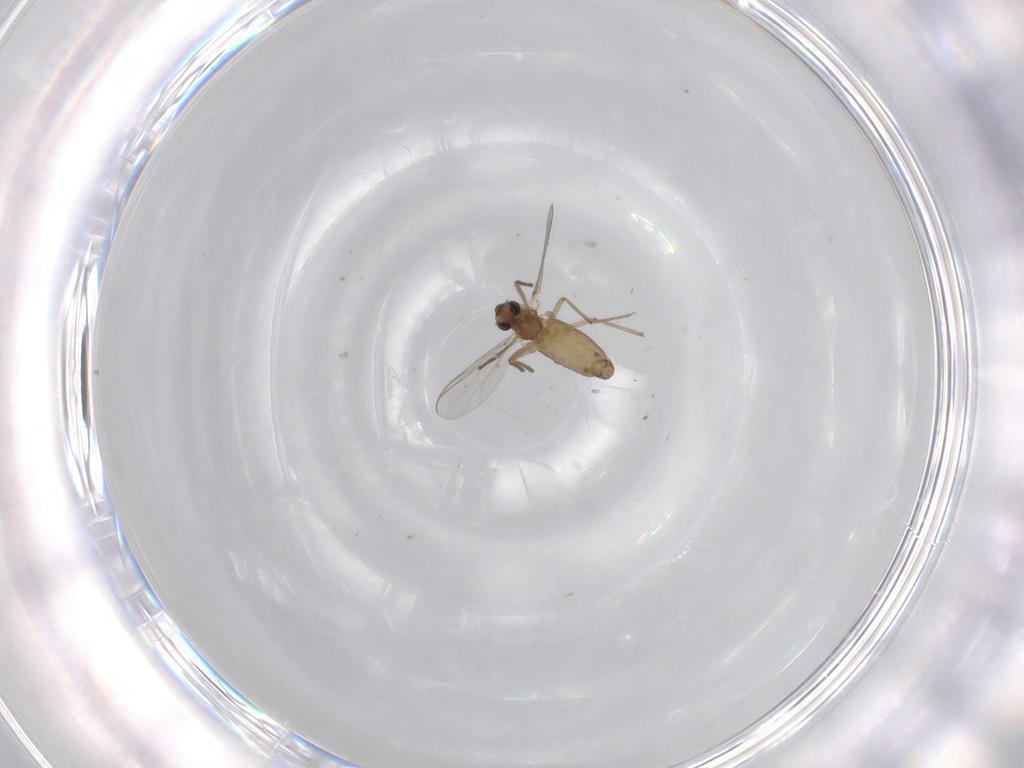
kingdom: Animalia
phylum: Arthropoda
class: Insecta
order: Diptera
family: Chironomidae
